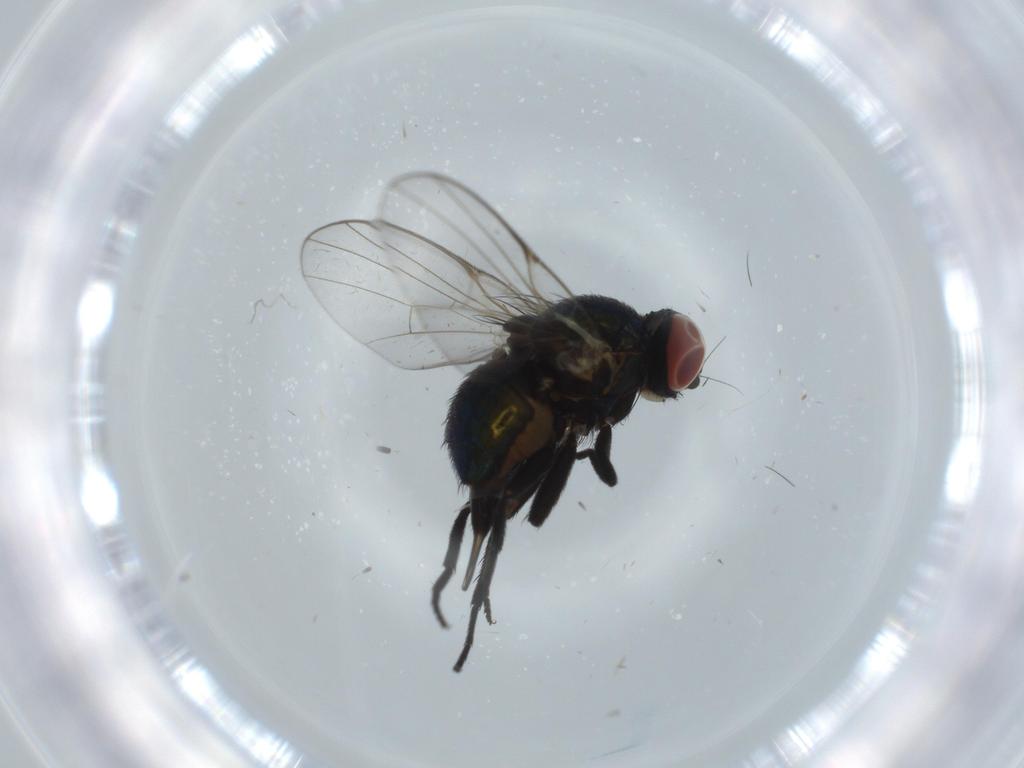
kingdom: Animalia
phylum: Arthropoda
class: Insecta
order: Diptera
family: Agromyzidae
